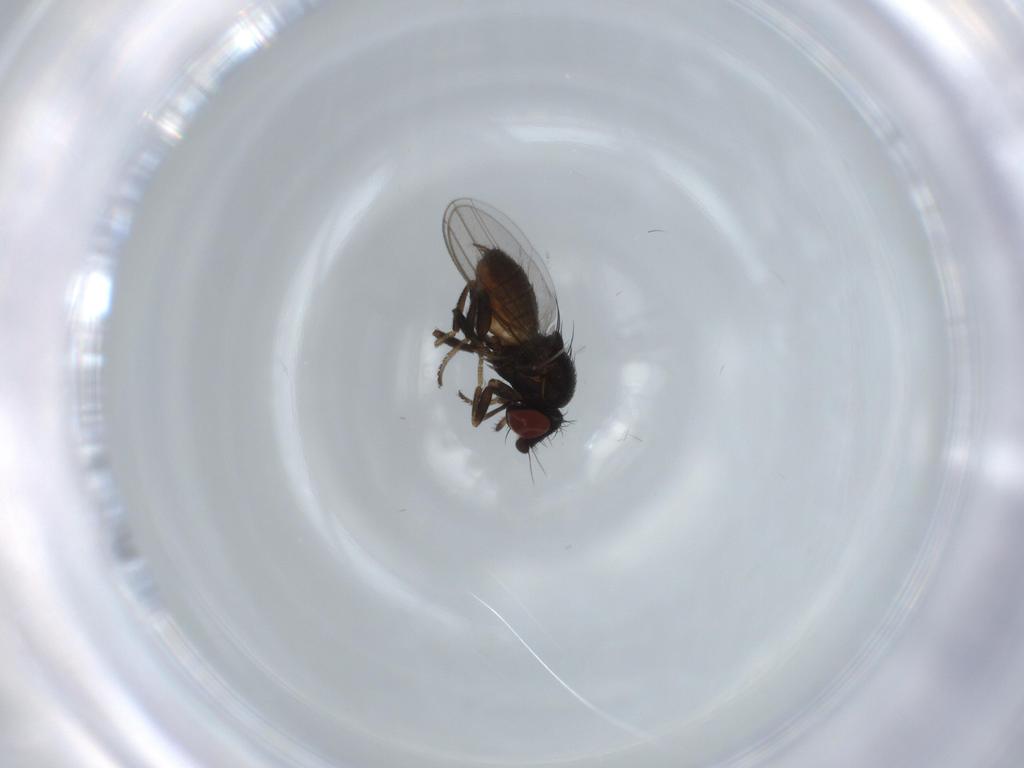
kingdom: Animalia
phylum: Arthropoda
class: Insecta
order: Diptera
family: Milichiidae
